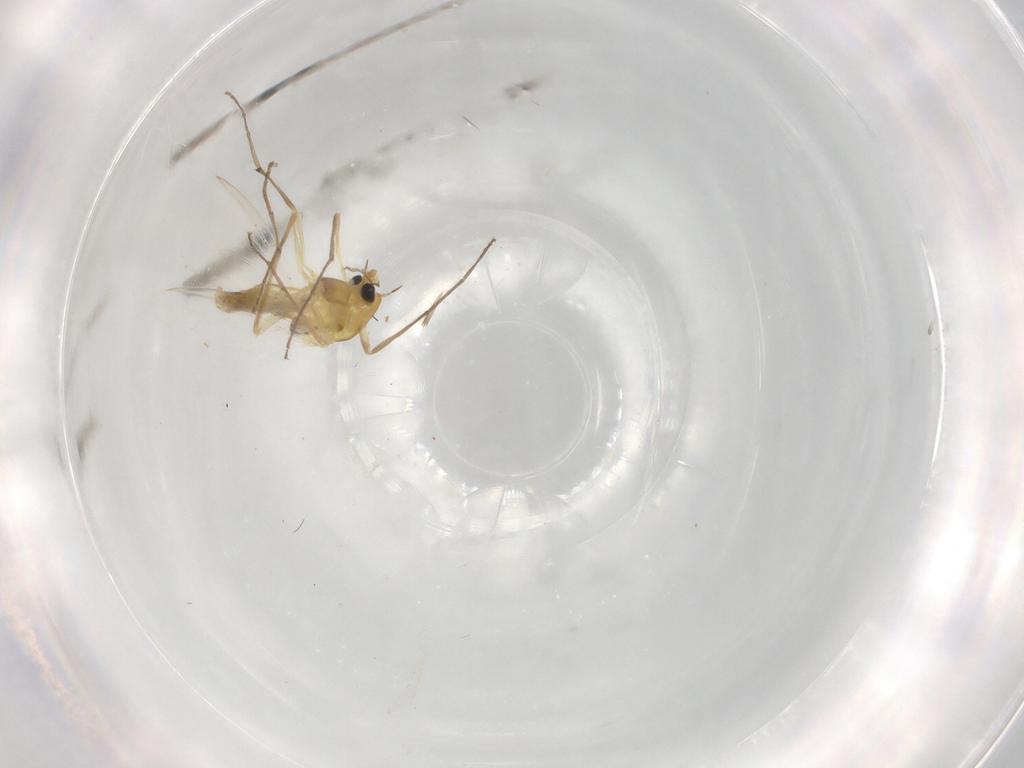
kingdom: Animalia
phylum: Arthropoda
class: Insecta
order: Diptera
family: Chironomidae
